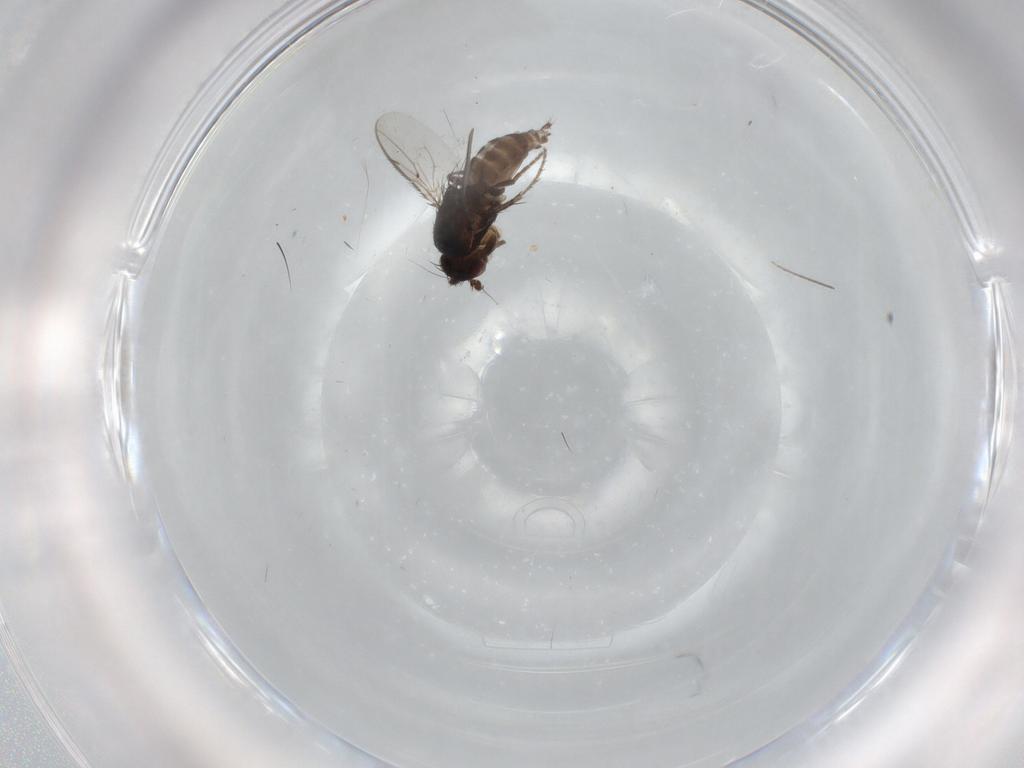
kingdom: Animalia
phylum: Arthropoda
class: Insecta
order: Diptera
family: Sphaeroceridae
